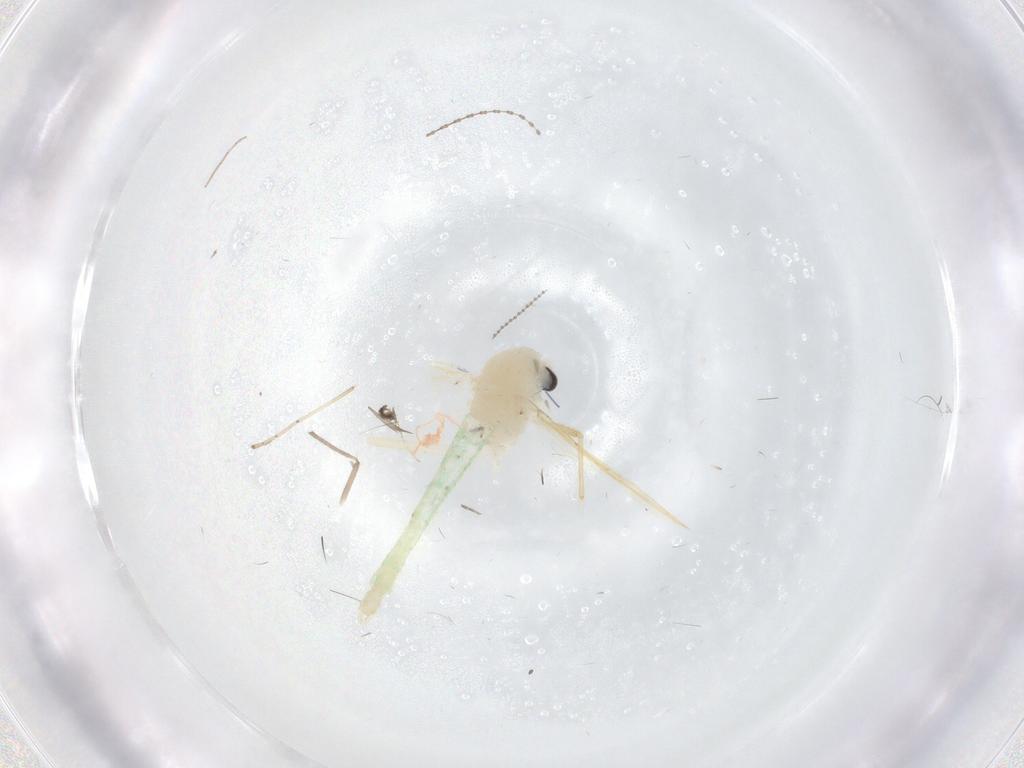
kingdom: Animalia
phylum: Arthropoda
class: Insecta
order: Diptera
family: Chironomidae
